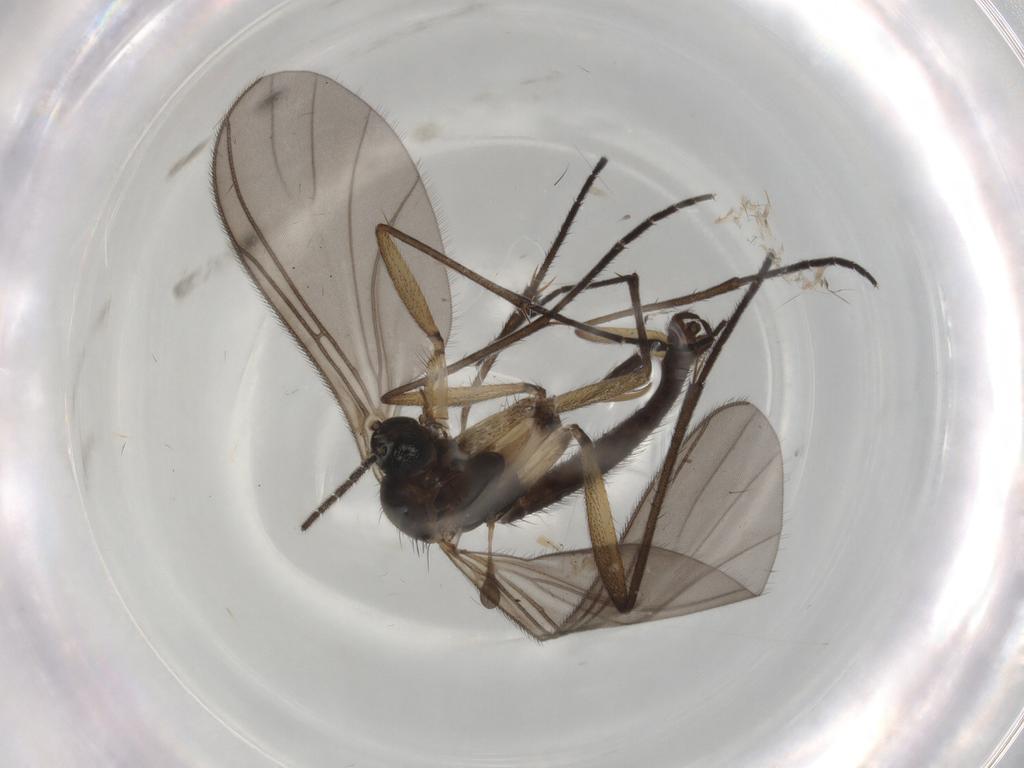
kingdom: Animalia
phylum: Arthropoda
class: Insecta
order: Diptera
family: Sciaridae
